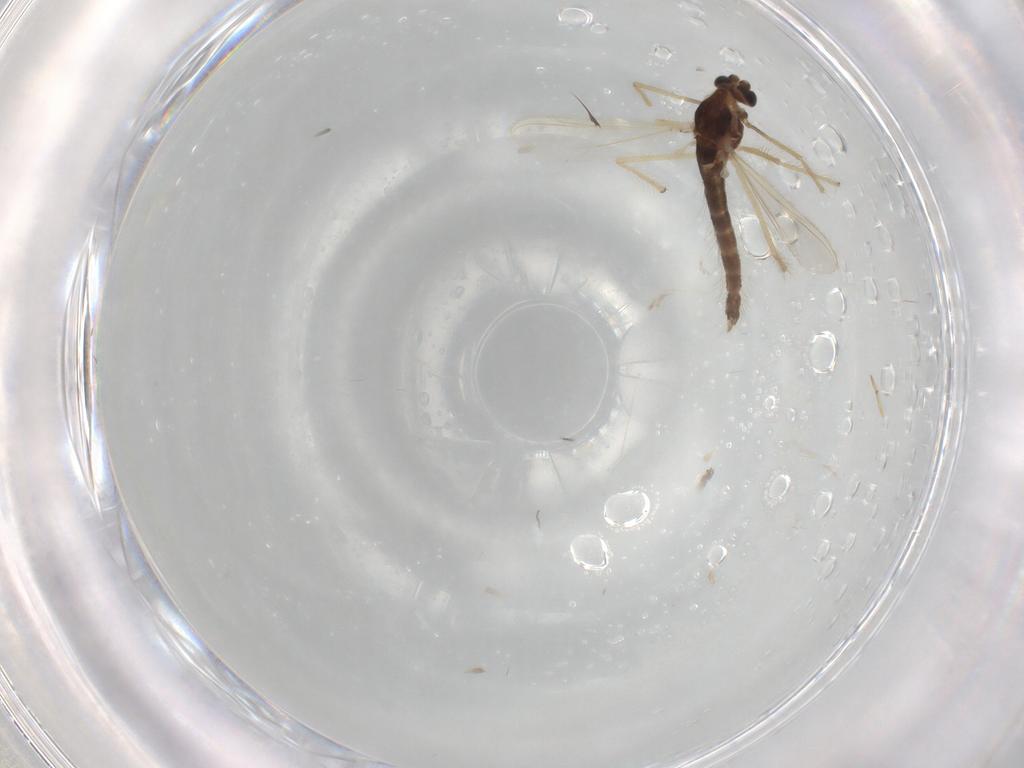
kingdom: Animalia
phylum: Arthropoda
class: Insecta
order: Diptera
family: Chironomidae
